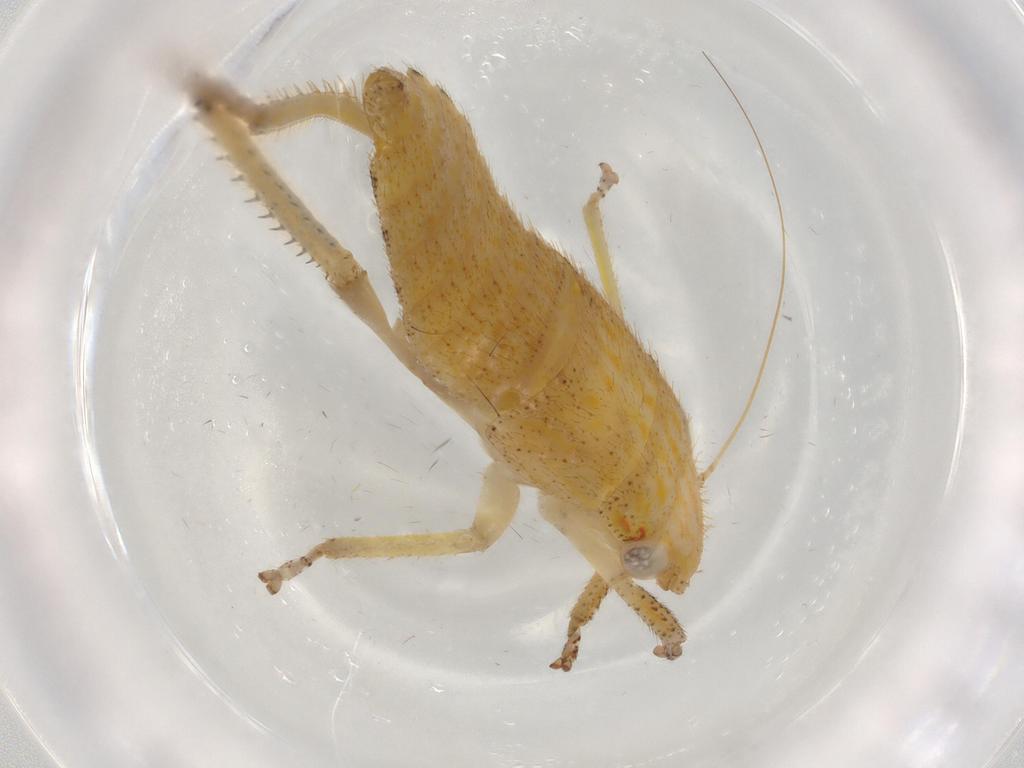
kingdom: Animalia
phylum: Arthropoda
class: Insecta
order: Hemiptera
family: Cicadellidae
